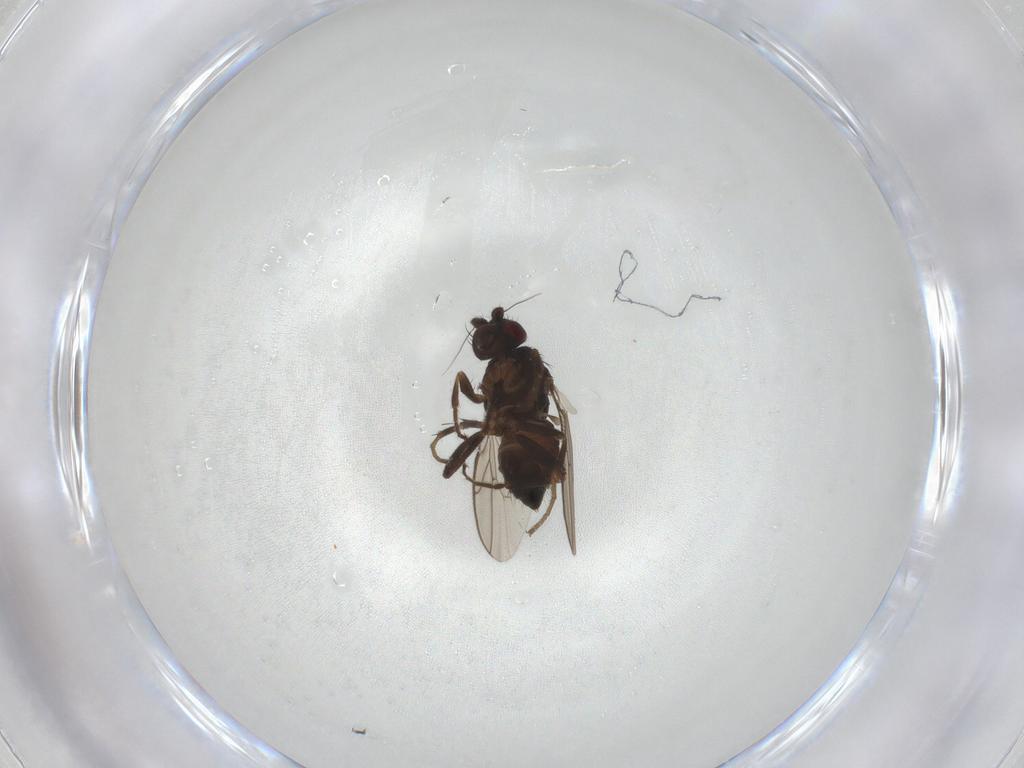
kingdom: Animalia
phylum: Arthropoda
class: Insecta
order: Diptera
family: Sphaeroceridae
